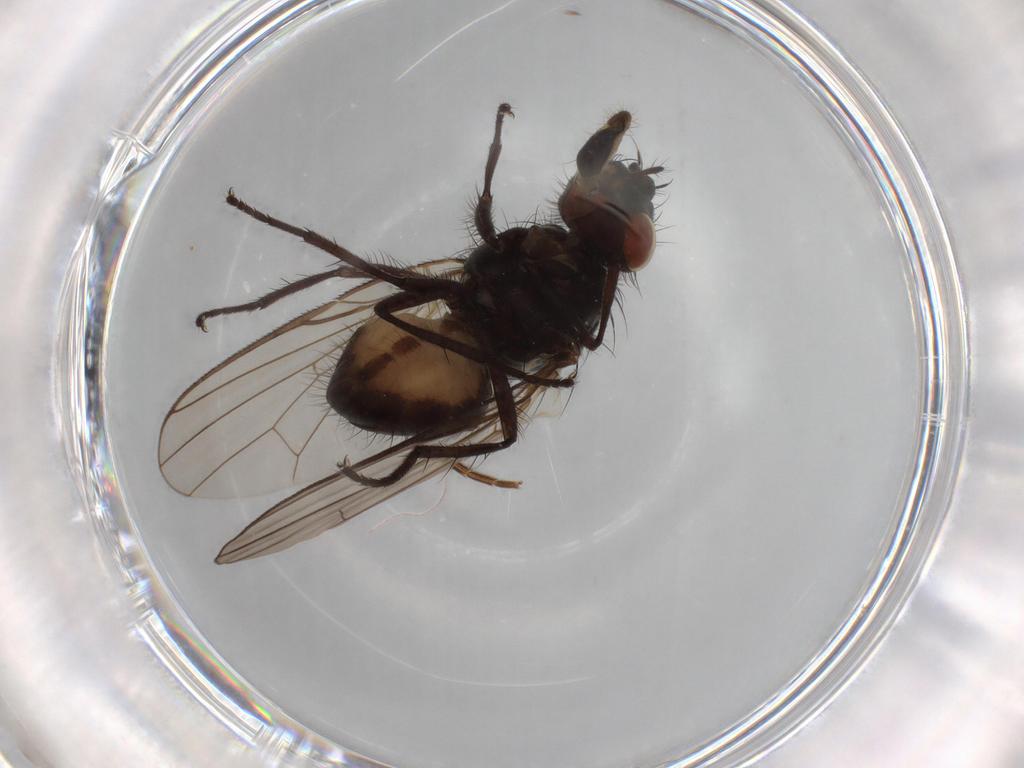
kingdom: Animalia
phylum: Arthropoda
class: Insecta
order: Diptera
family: Anthomyiidae
